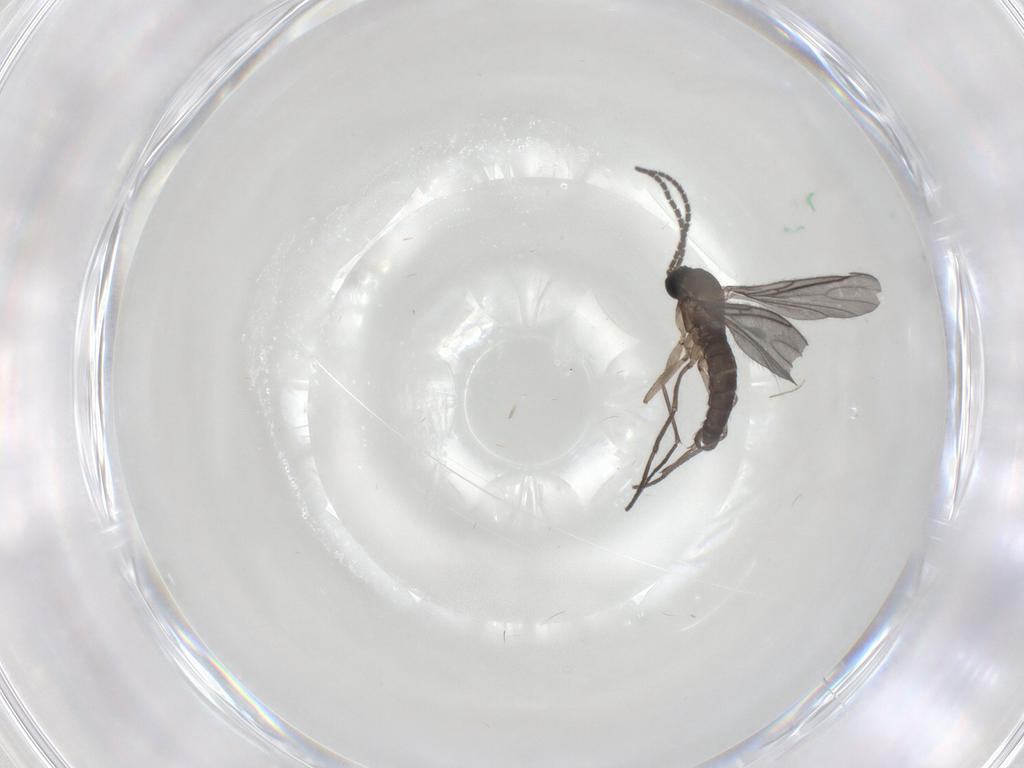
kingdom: Animalia
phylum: Arthropoda
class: Insecta
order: Diptera
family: Sciaridae
